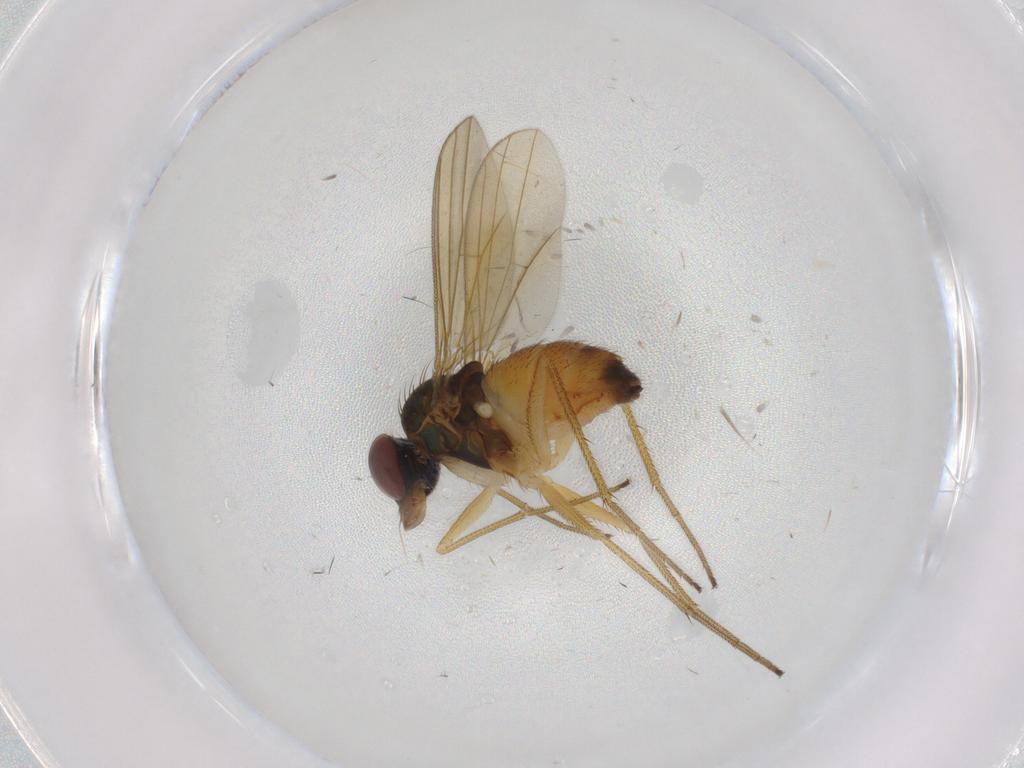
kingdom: Animalia
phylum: Arthropoda
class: Insecta
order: Diptera
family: Dolichopodidae
